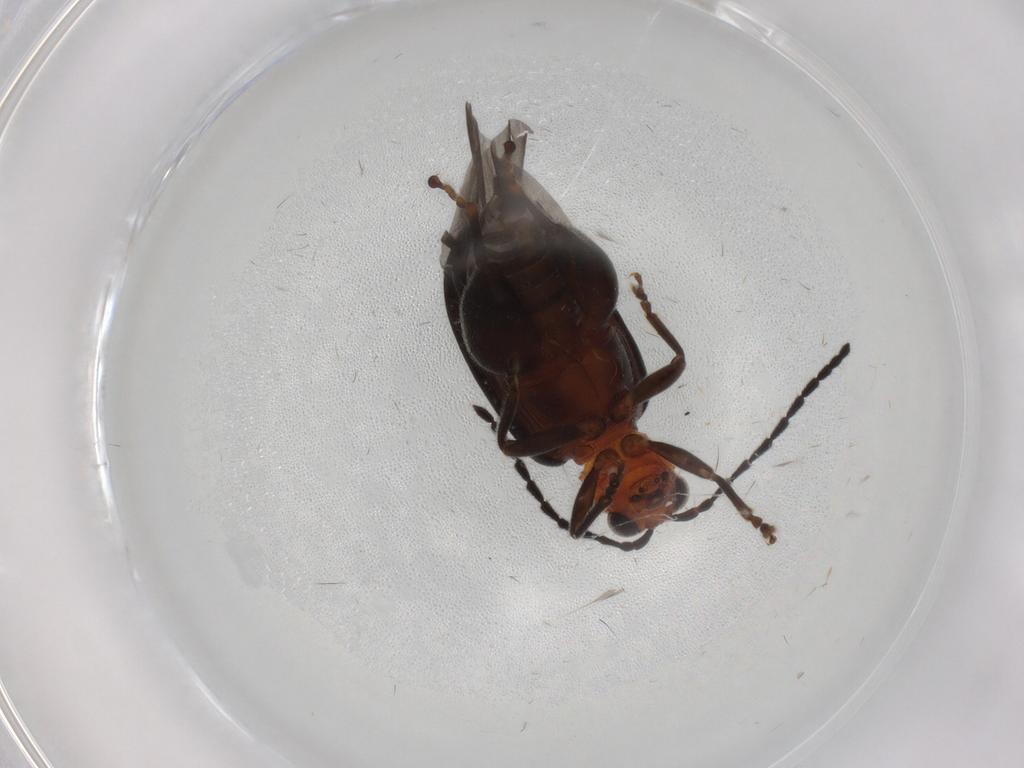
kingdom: Animalia
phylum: Arthropoda
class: Insecta
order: Coleoptera
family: Chrysomelidae
